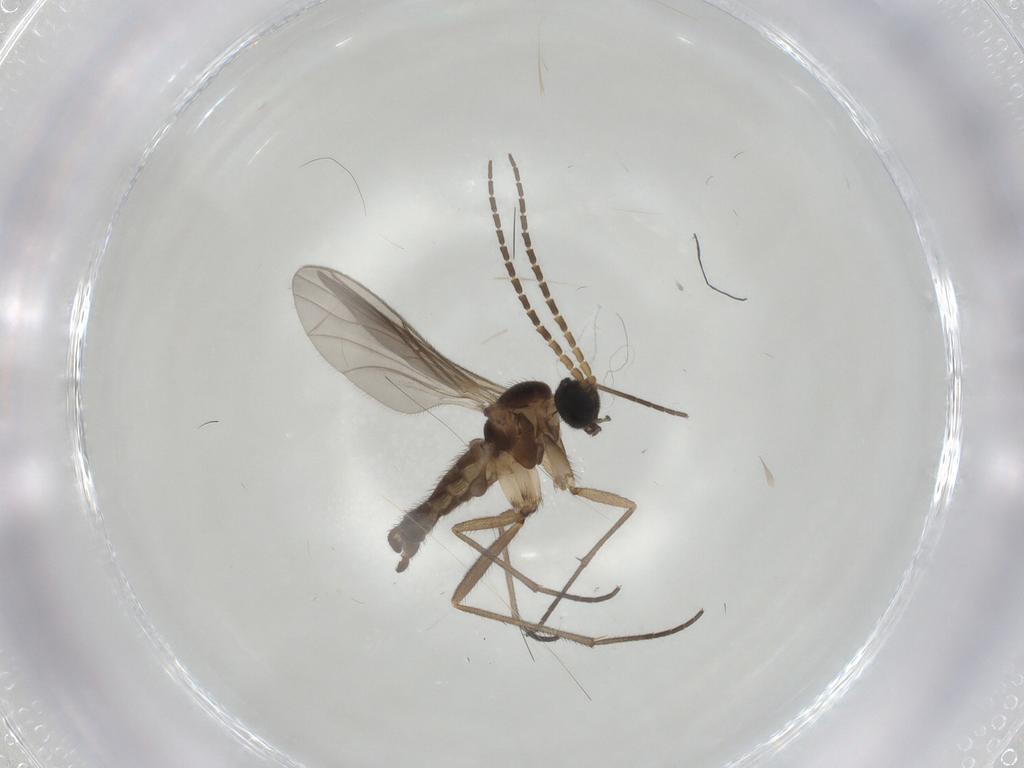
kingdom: Animalia
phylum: Arthropoda
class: Insecta
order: Diptera
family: Sciaridae
